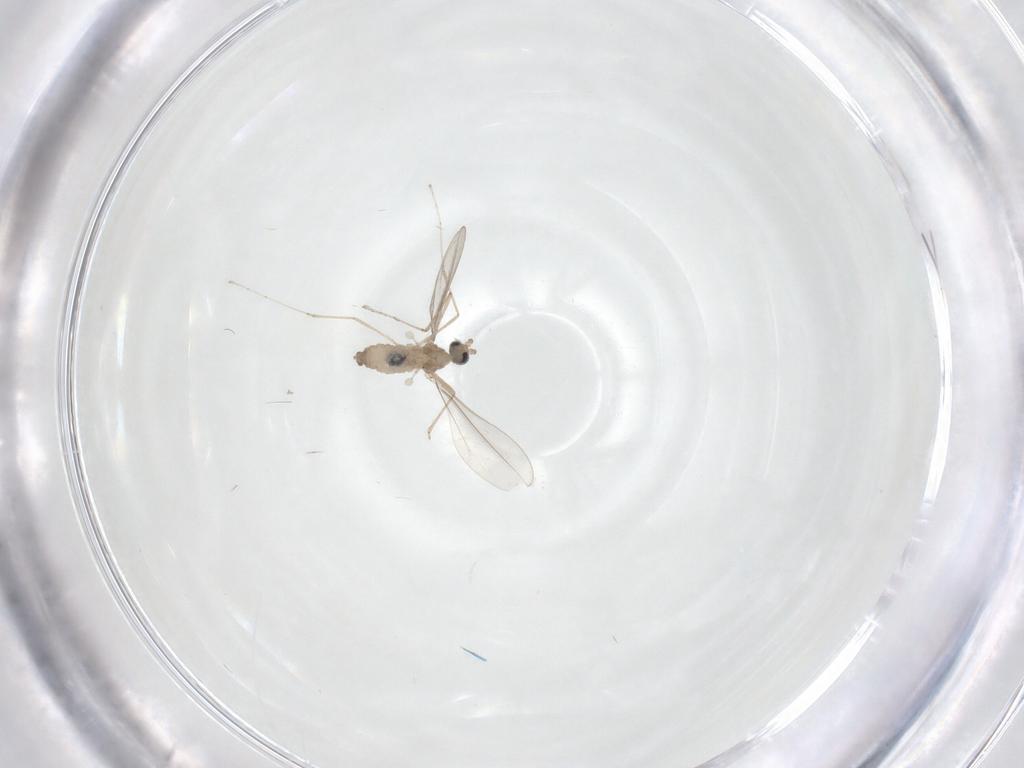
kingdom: Animalia
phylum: Arthropoda
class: Insecta
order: Diptera
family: Cecidomyiidae
